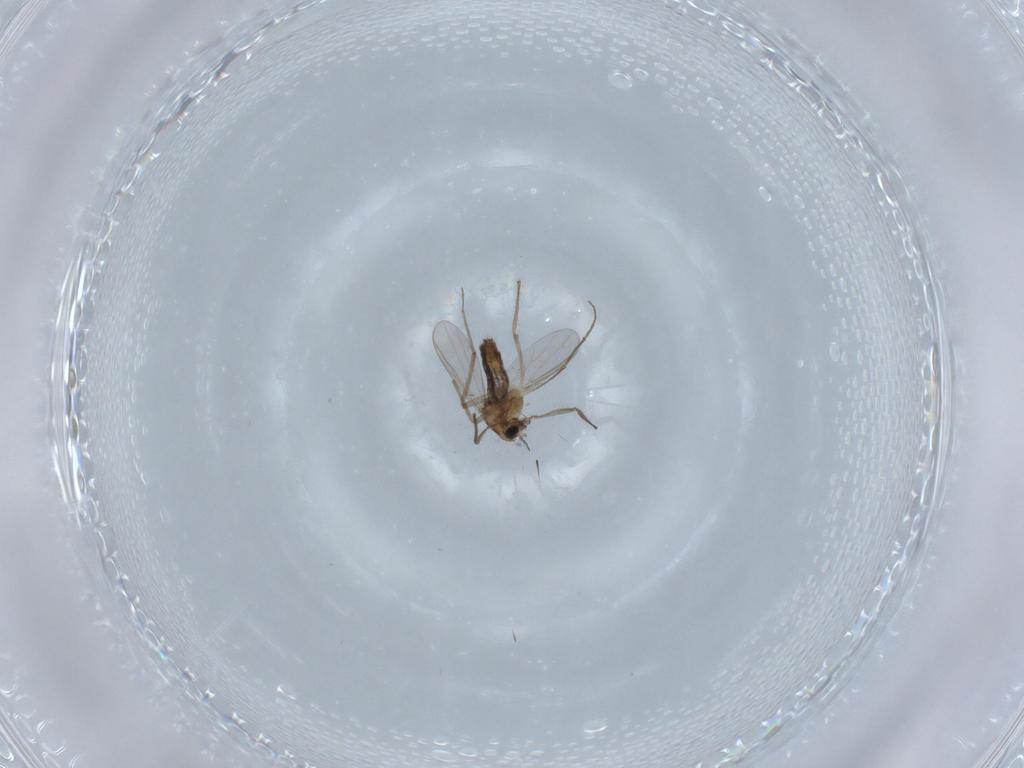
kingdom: Animalia
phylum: Arthropoda
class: Insecta
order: Diptera
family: Chironomidae
